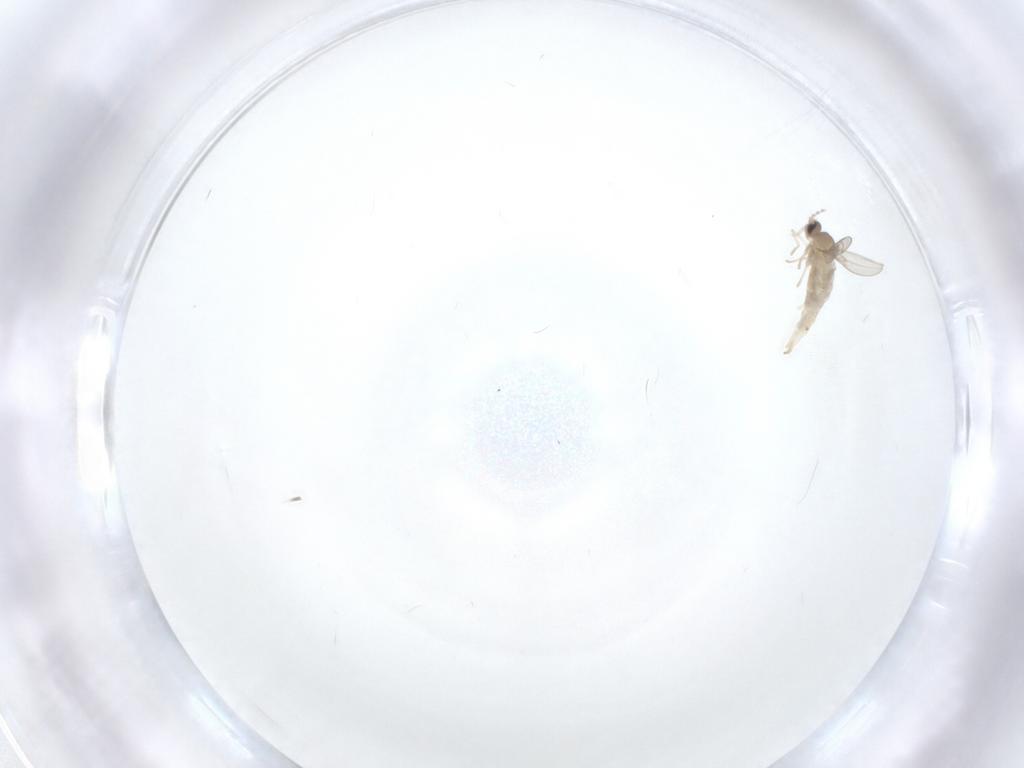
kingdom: Animalia
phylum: Arthropoda
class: Insecta
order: Diptera
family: Cecidomyiidae
